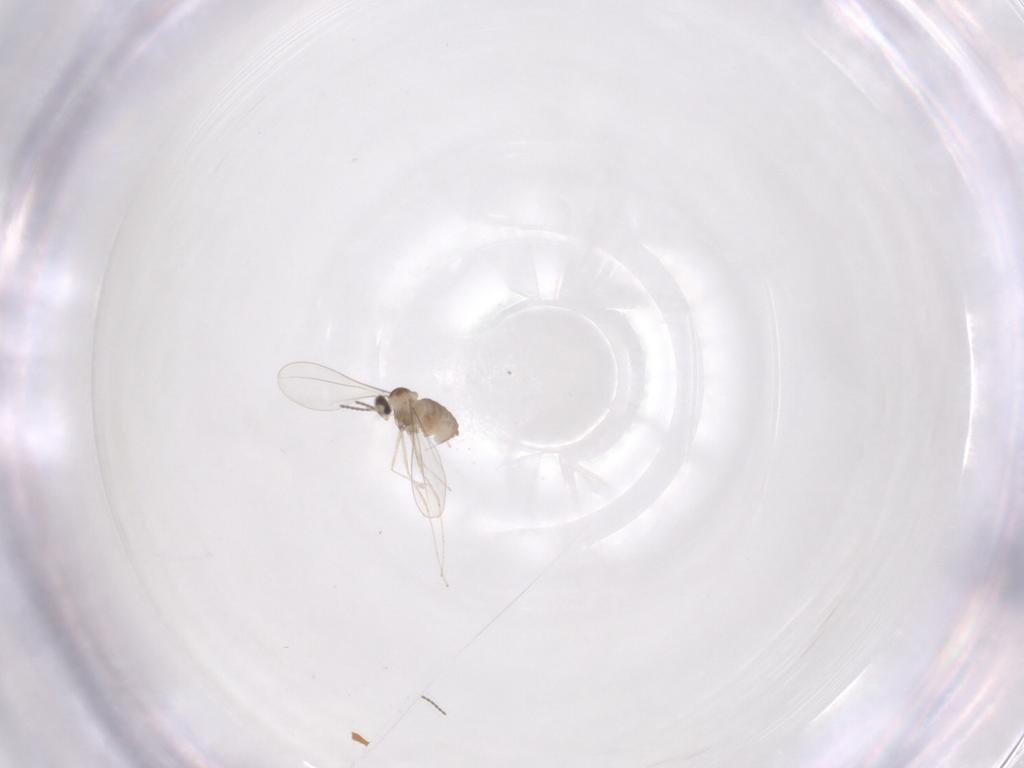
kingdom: Animalia
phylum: Arthropoda
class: Insecta
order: Diptera
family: Cecidomyiidae
